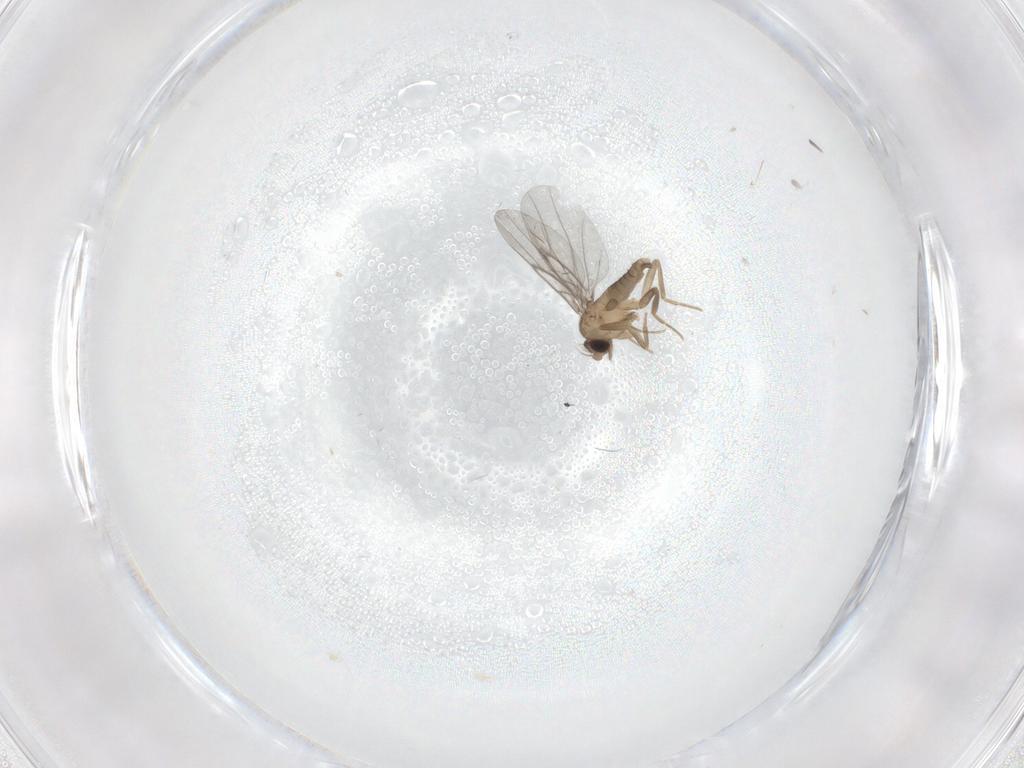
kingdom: Animalia
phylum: Arthropoda
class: Insecta
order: Diptera
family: Cecidomyiidae
